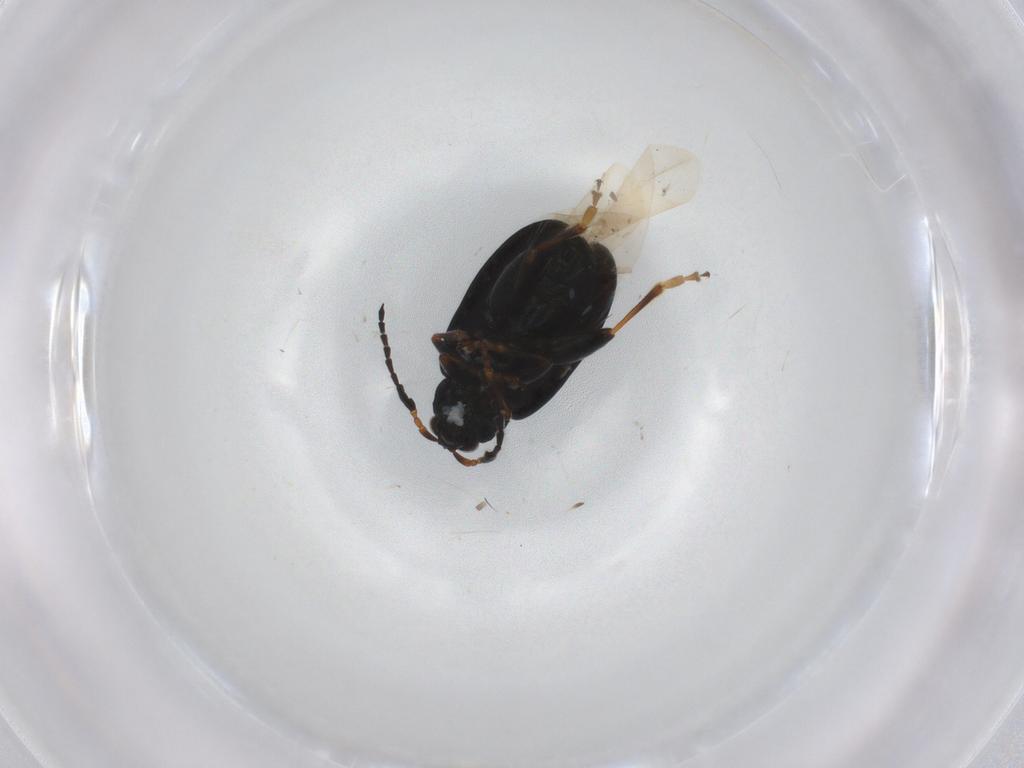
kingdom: Animalia
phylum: Arthropoda
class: Insecta
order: Coleoptera
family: Chrysomelidae
